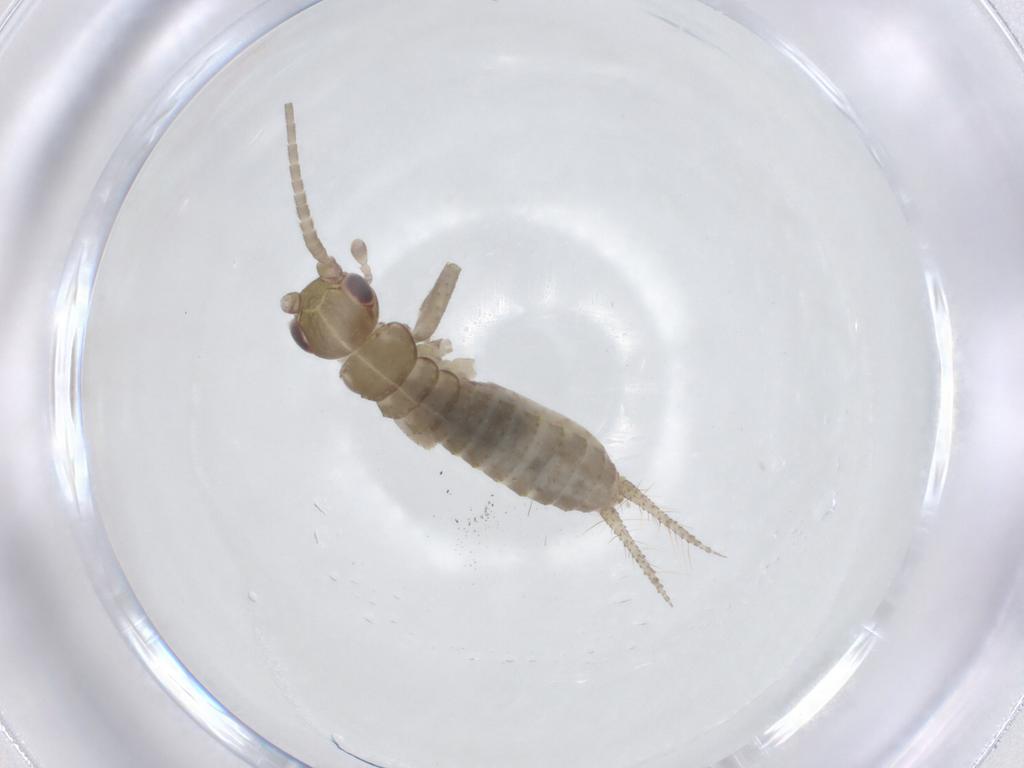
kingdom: Animalia
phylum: Arthropoda
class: Insecta
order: Orthoptera
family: Gryllidae
